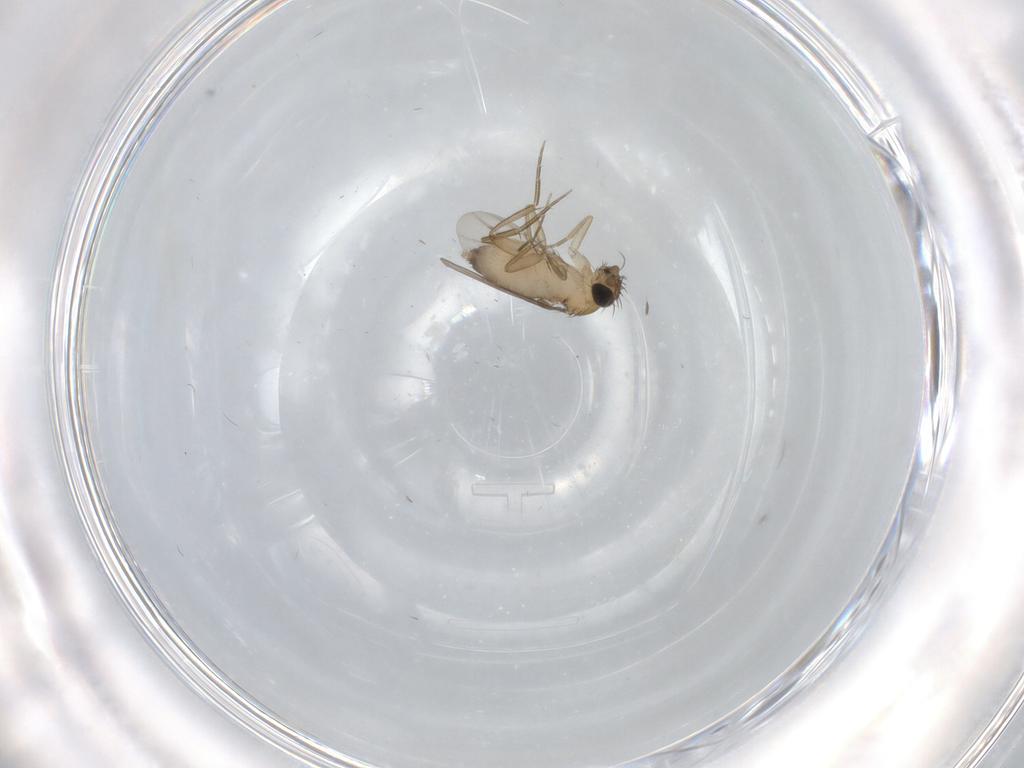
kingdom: Animalia
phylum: Arthropoda
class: Insecta
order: Diptera
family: Phoridae
